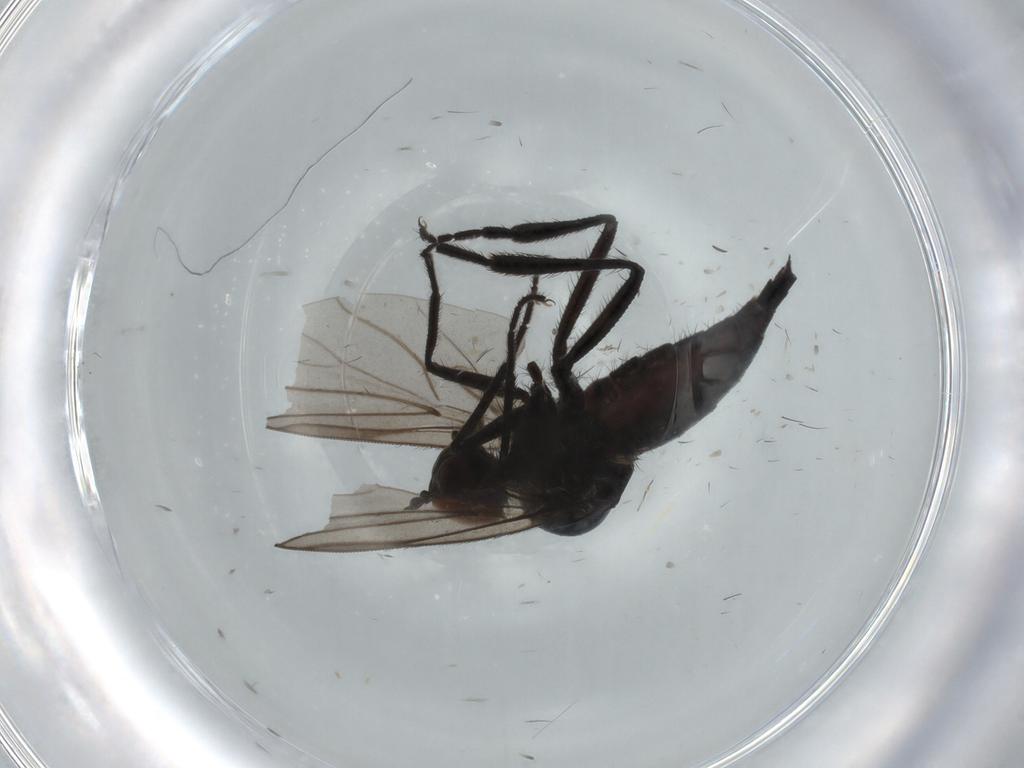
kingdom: Animalia
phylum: Arthropoda
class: Insecta
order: Diptera
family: Hybotidae
